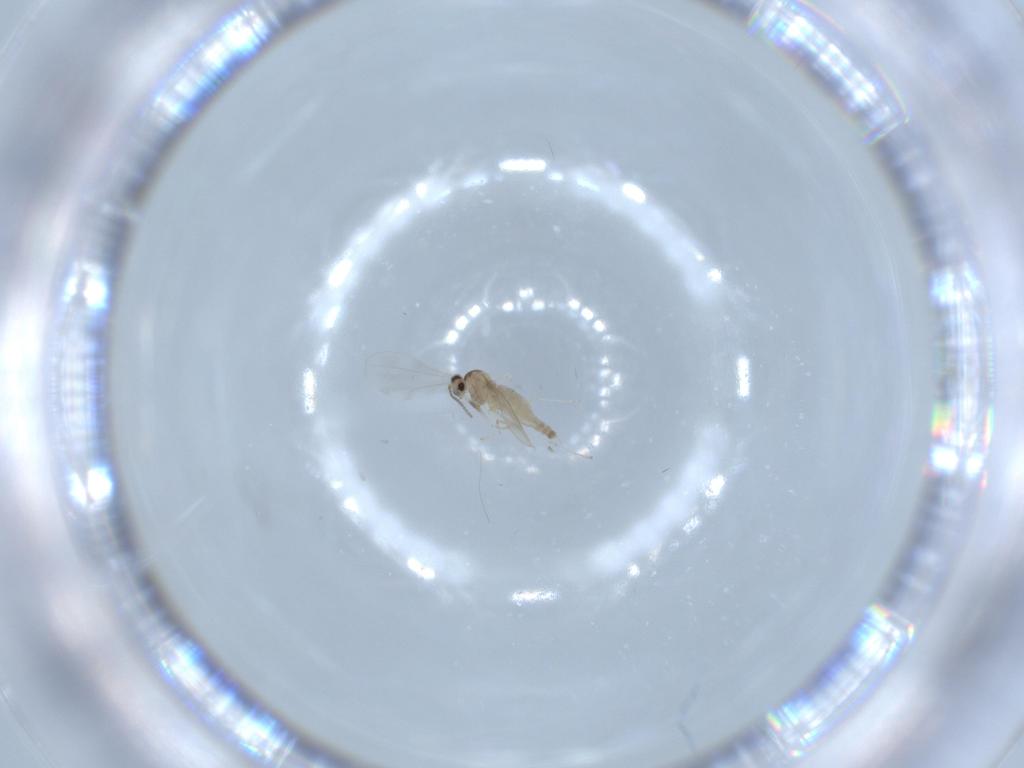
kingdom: Animalia
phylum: Arthropoda
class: Insecta
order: Diptera
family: Cecidomyiidae
